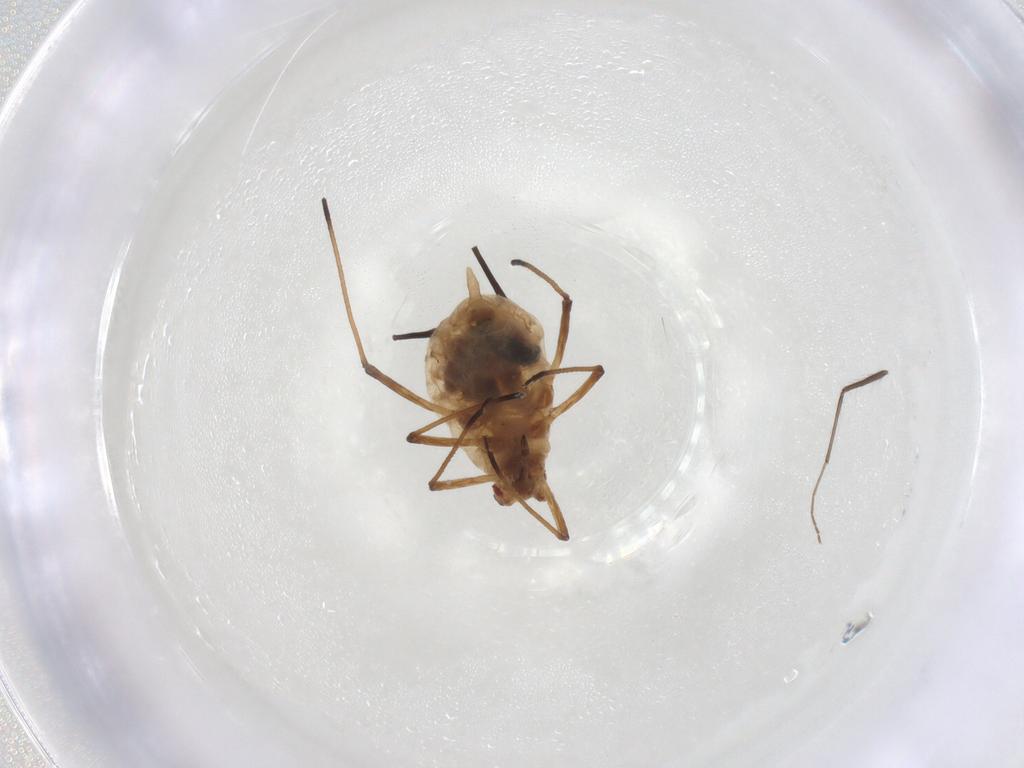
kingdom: Animalia
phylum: Arthropoda
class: Insecta
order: Hemiptera
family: Aphididae
